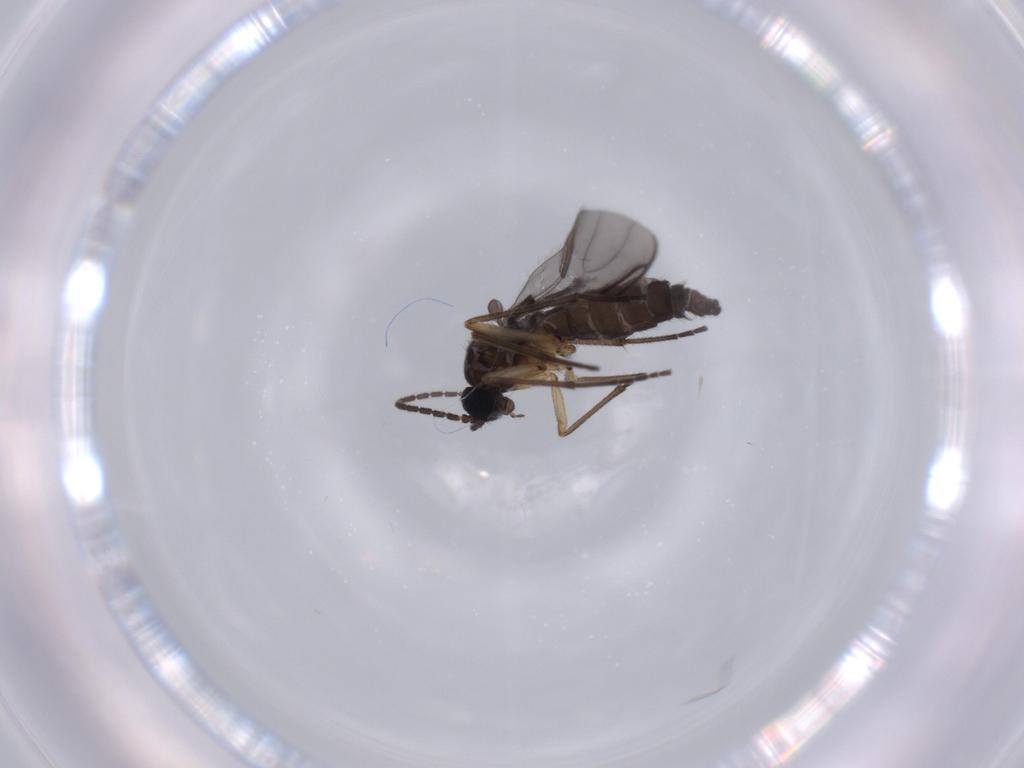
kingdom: Animalia
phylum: Arthropoda
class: Insecta
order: Diptera
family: Sciaridae
